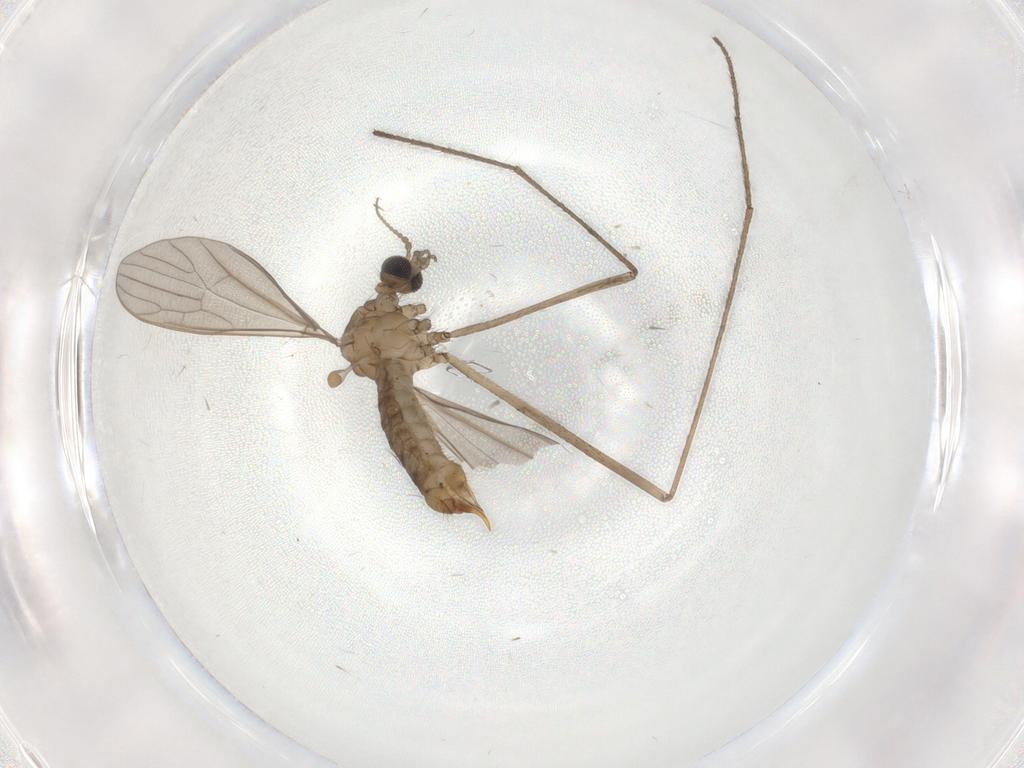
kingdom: Animalia
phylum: Arthropoda
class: Insecta
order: Diptera
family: Limoniidae
